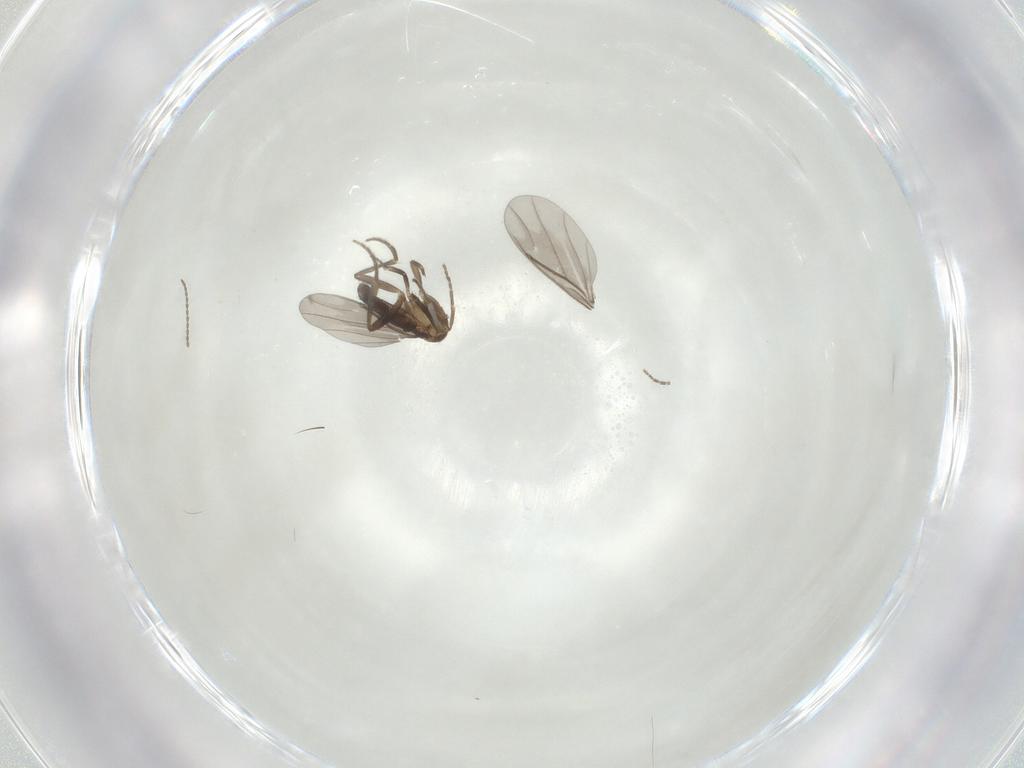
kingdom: Animalia
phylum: Arthropoda
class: Insecta
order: Diptera
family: Phoridae
